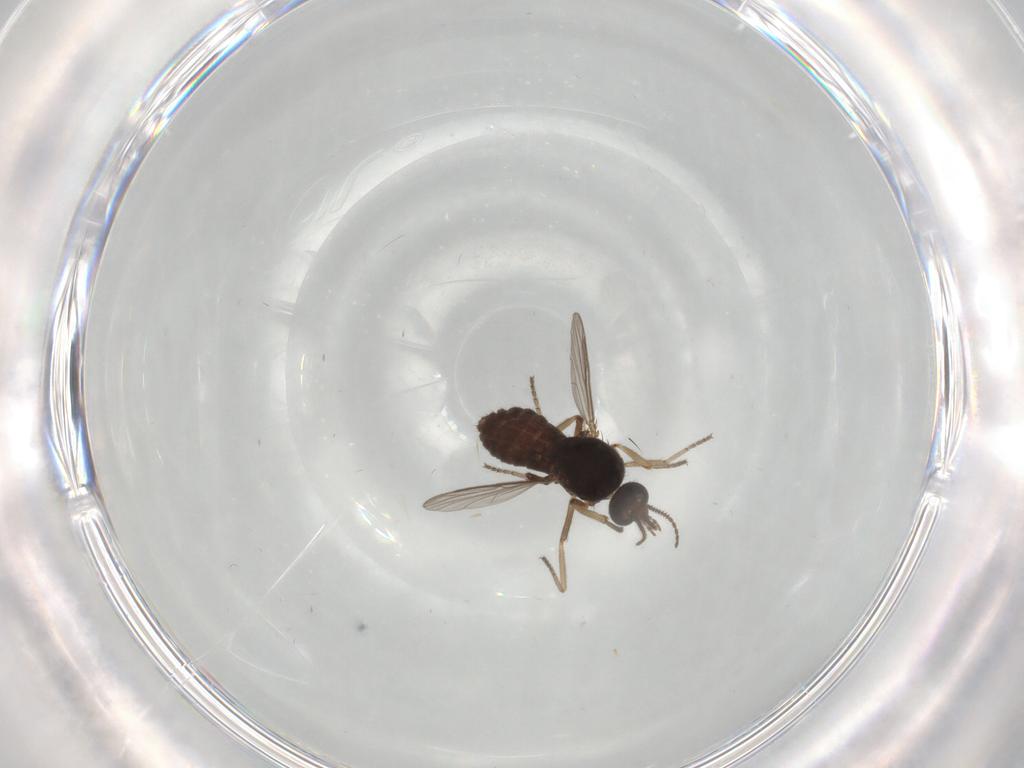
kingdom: Animalia
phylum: Arthropoda
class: Insecta
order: Diptera
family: Ceratopogonidae
